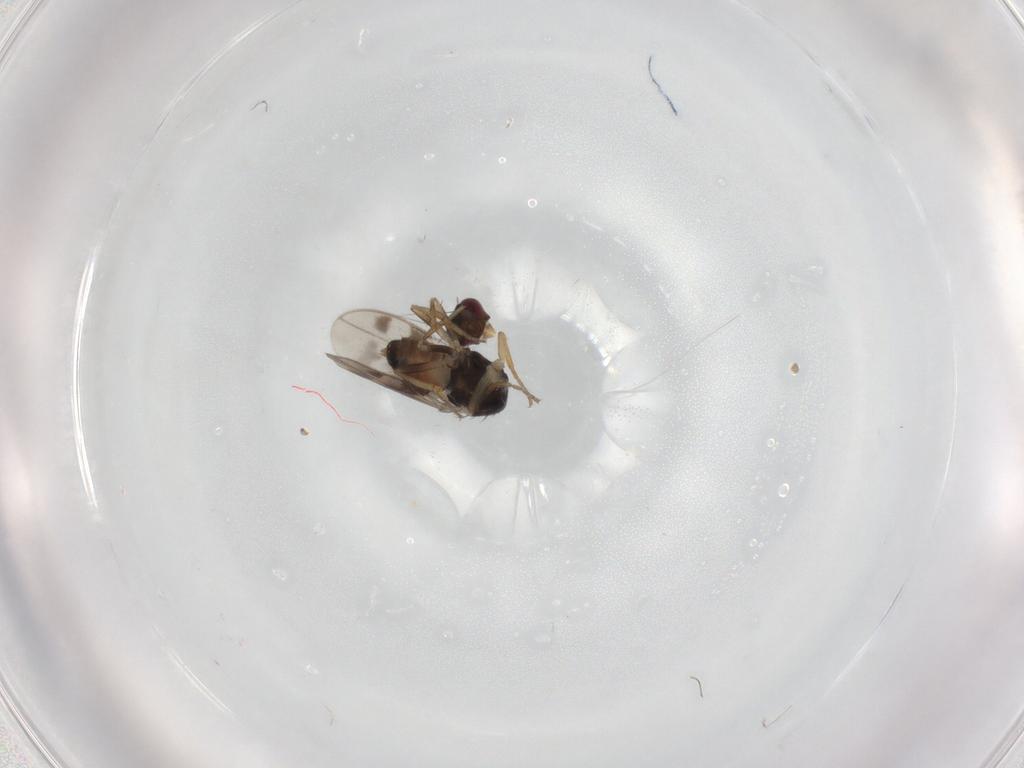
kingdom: Animalia
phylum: Arthropoda
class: Insecta
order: Diptera
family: Sphaeroceridae
